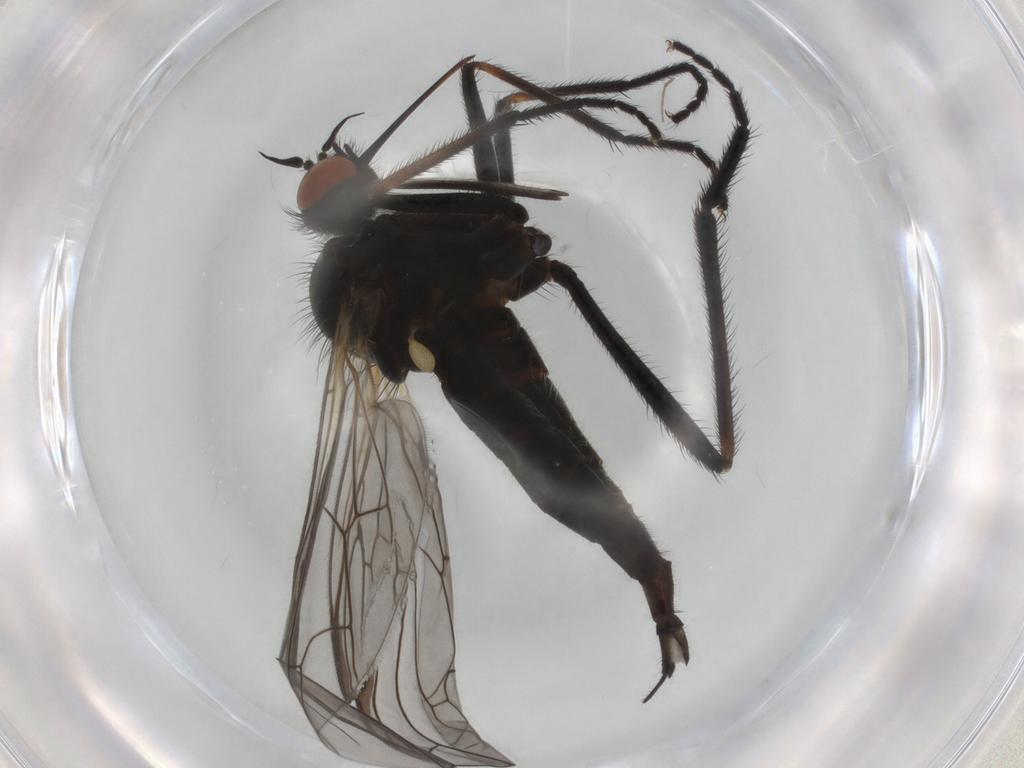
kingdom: Animalia
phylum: Arthropoda
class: Insecta
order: Diptera
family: Empididae
